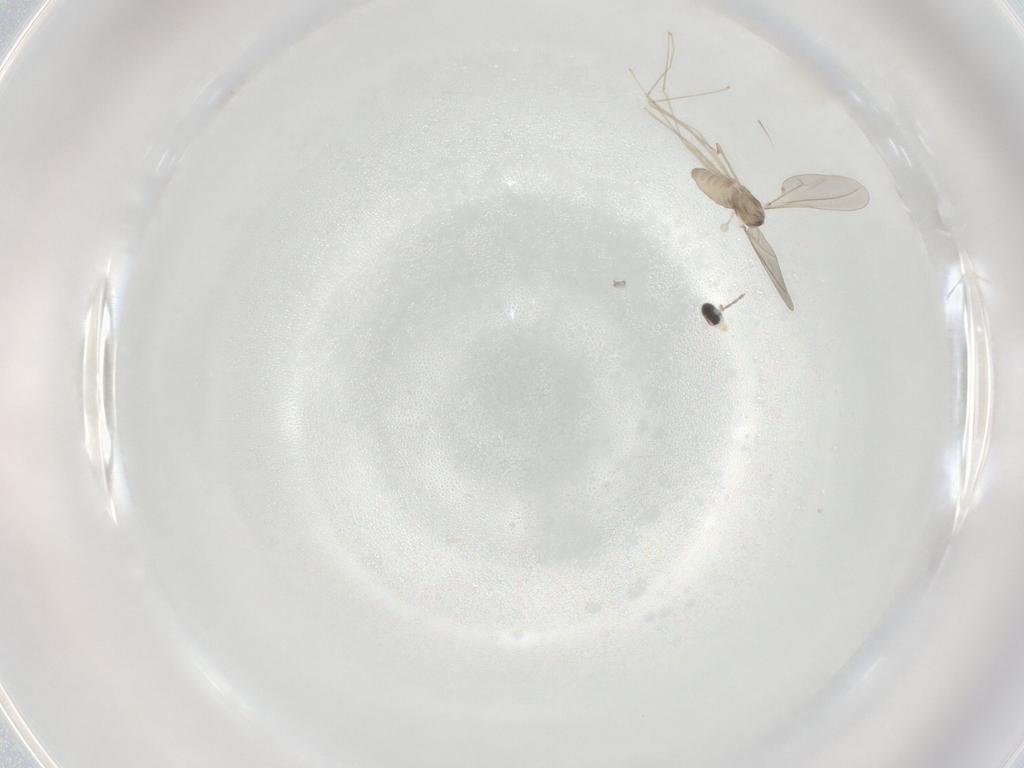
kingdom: Animalia
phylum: Arthropoda
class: Insecta
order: Diptera
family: Cecidomyiidae
